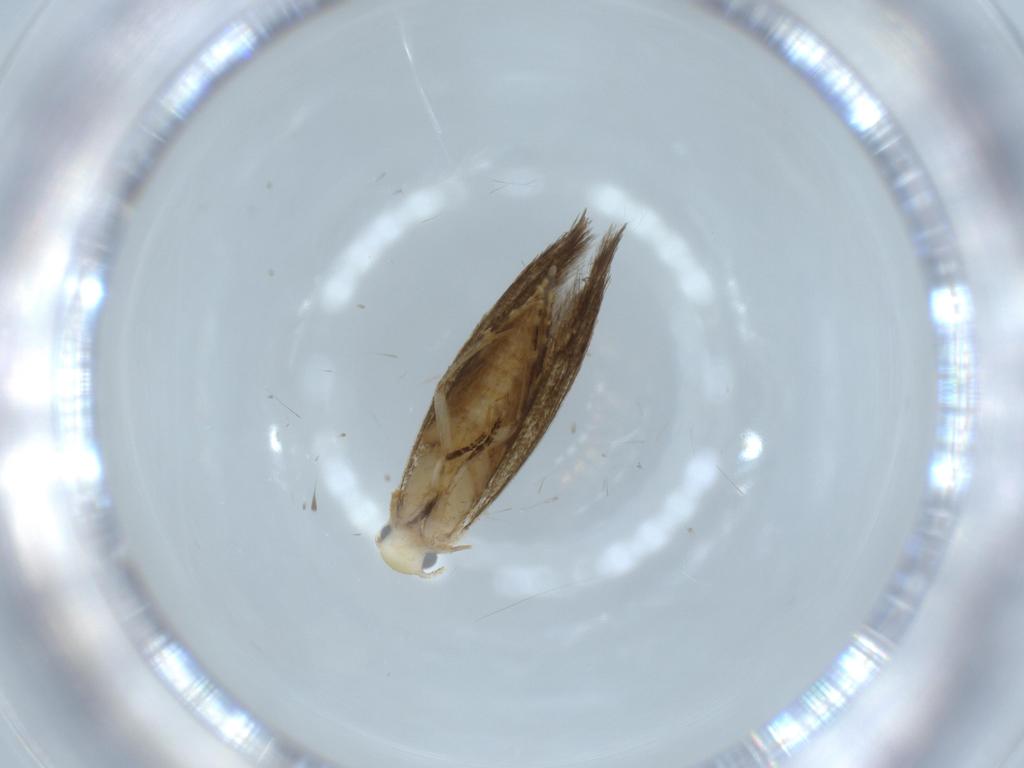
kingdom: Animalia
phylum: Arthropoda
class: Insecta
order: Lepidoptera
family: Tineidae
